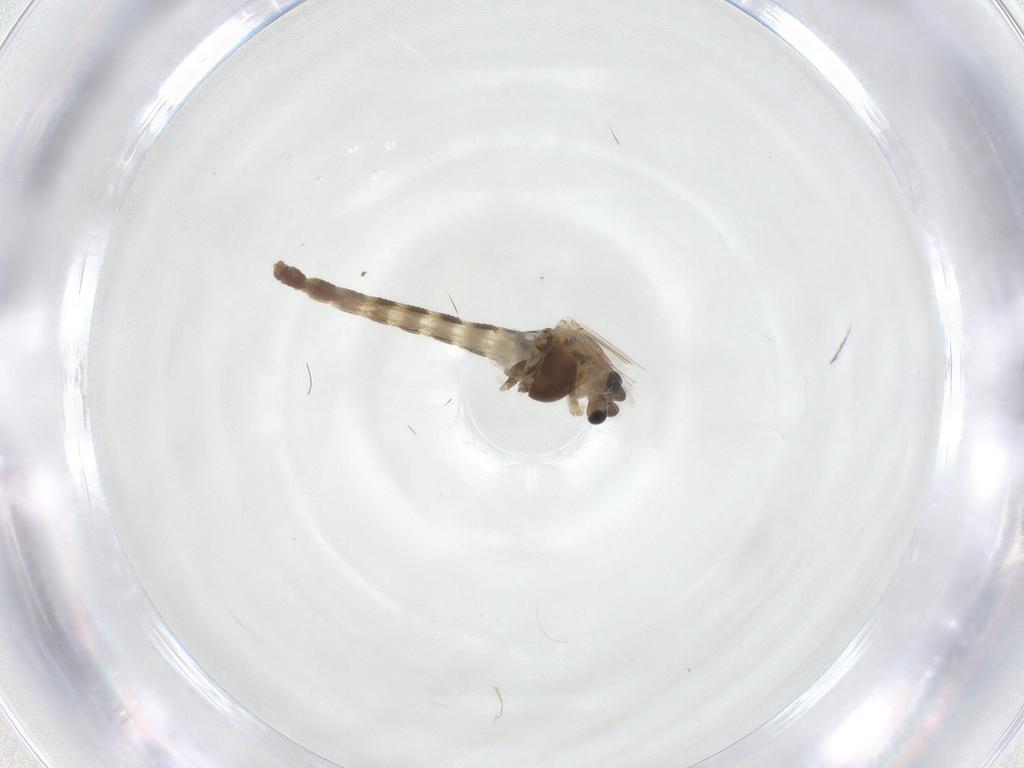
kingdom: Animalia
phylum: Arthropoda
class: Insecta
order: Diptera
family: Chironomidae
